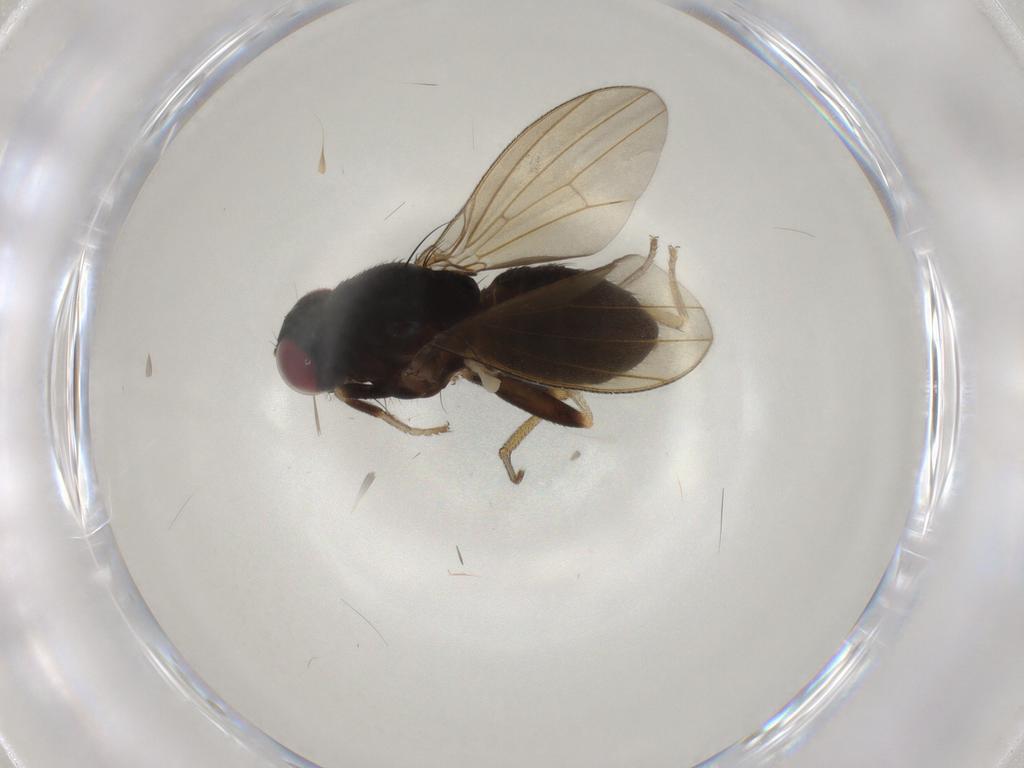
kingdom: Animalia
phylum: Arthropoda
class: Insecta
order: Diptera
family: Lauxaniidae
